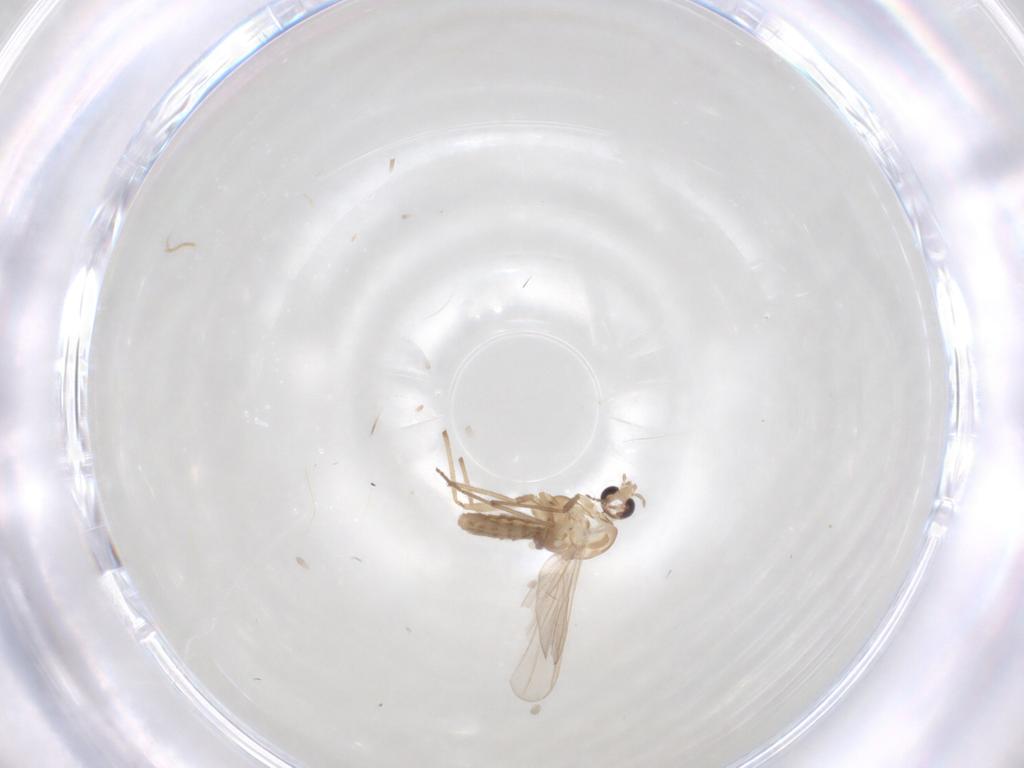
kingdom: Animalia
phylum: Arthropoda
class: Insecta
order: Diptera
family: Chironomidae
